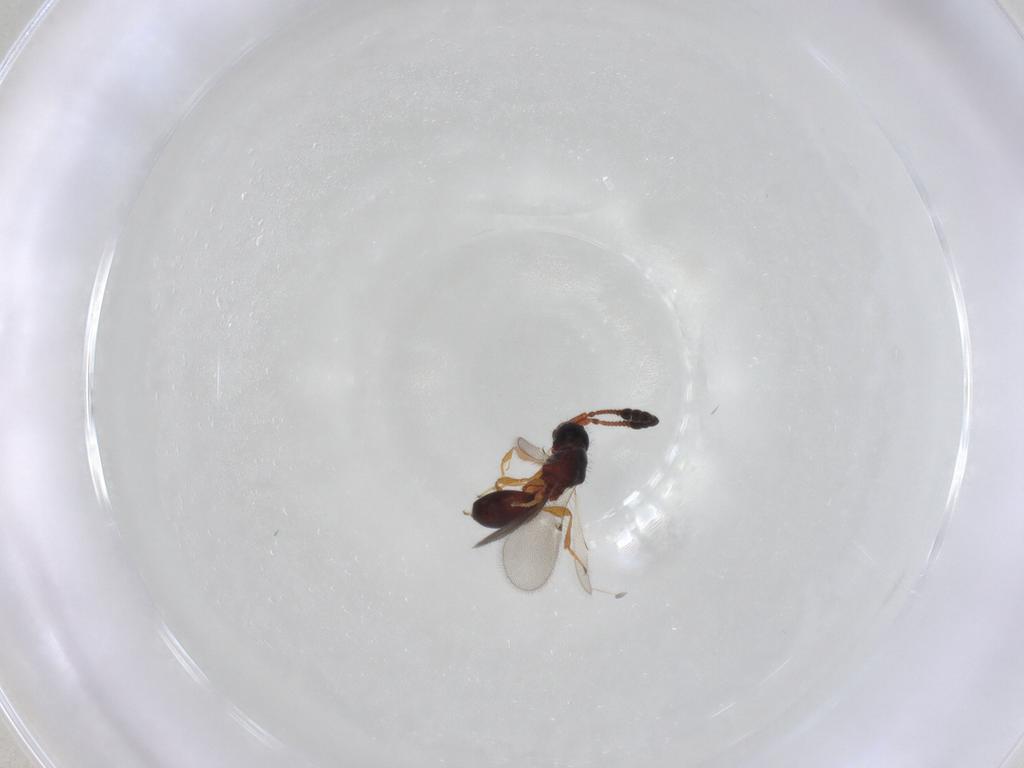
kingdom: Animalia
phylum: Arthropoda
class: Insecta
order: Hymenoptera
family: Diapriidae
